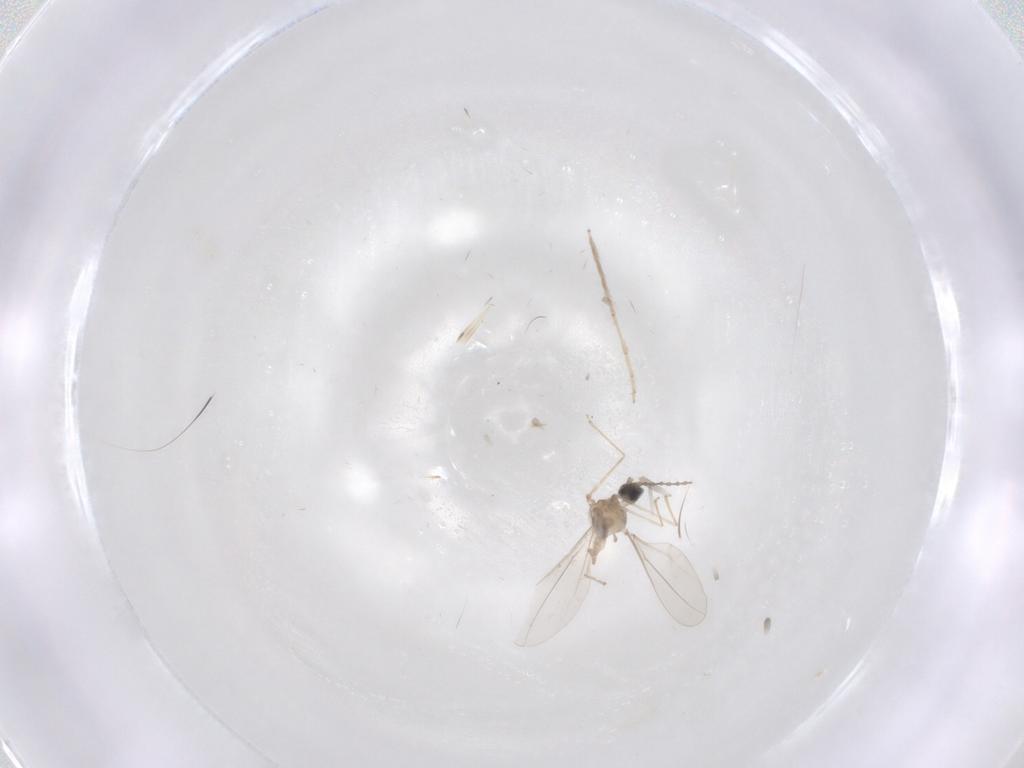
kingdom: Animalia
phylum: Arthropoda
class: Insecta
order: Diptera
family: Cecidomyiidae
